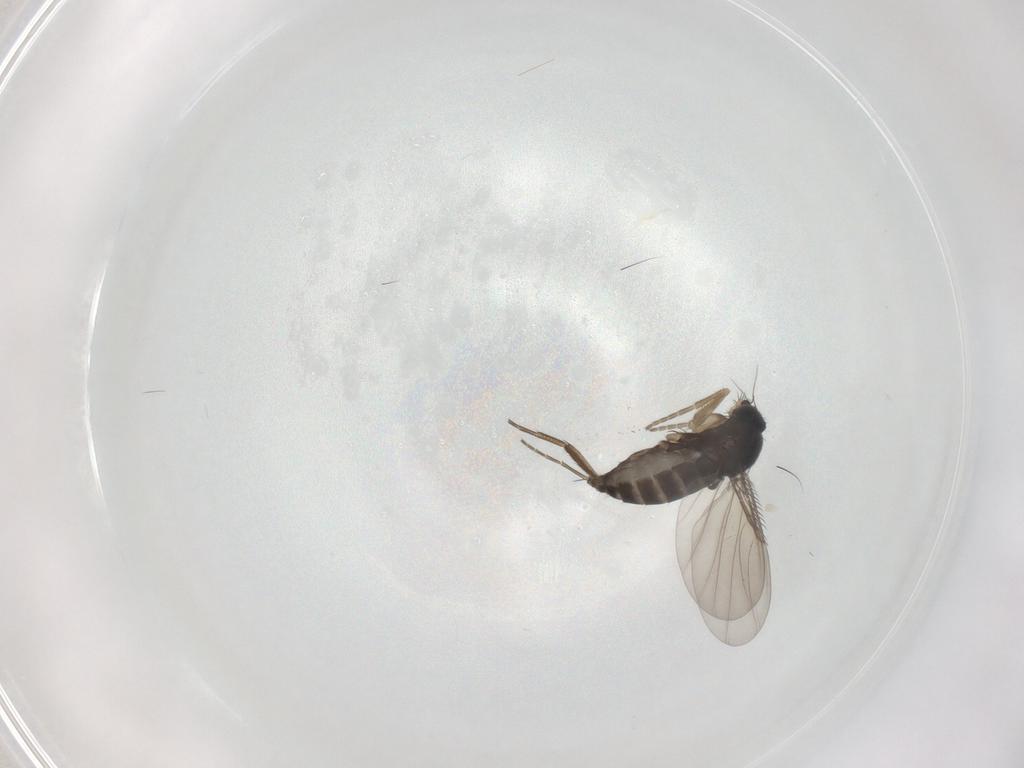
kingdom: Animalia
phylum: Arthropoda
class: Insecta
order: Diptera
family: Phoridae
